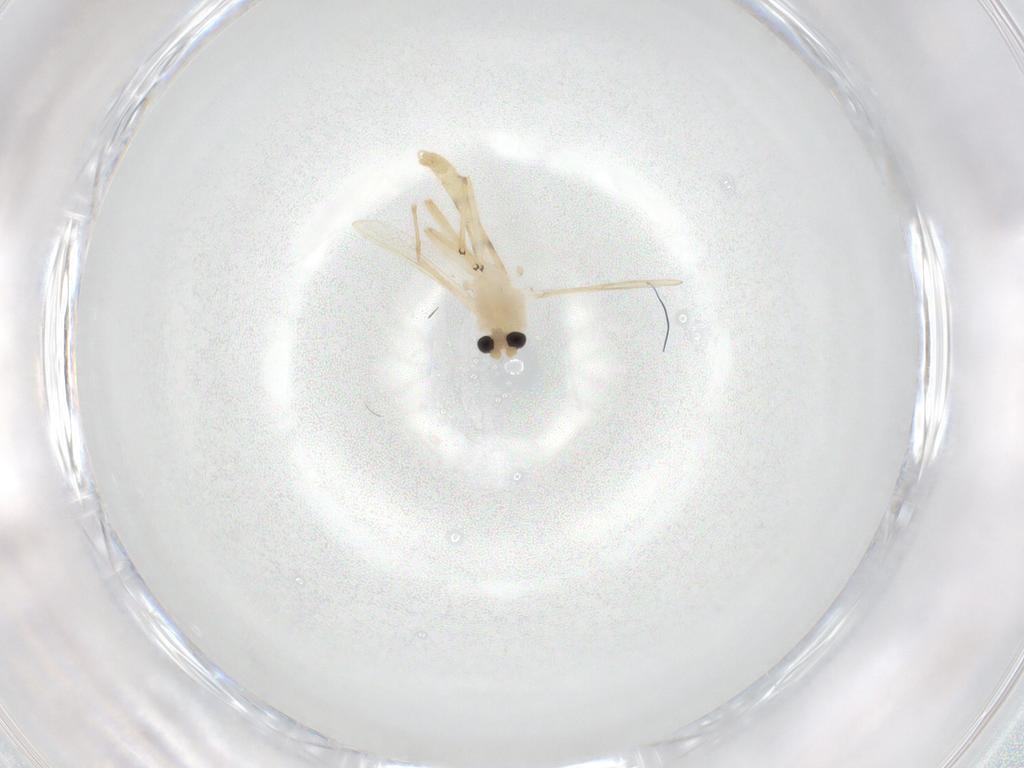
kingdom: Animalia
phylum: Arthropoda
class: Insecta
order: Diptera
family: Chironomidae
